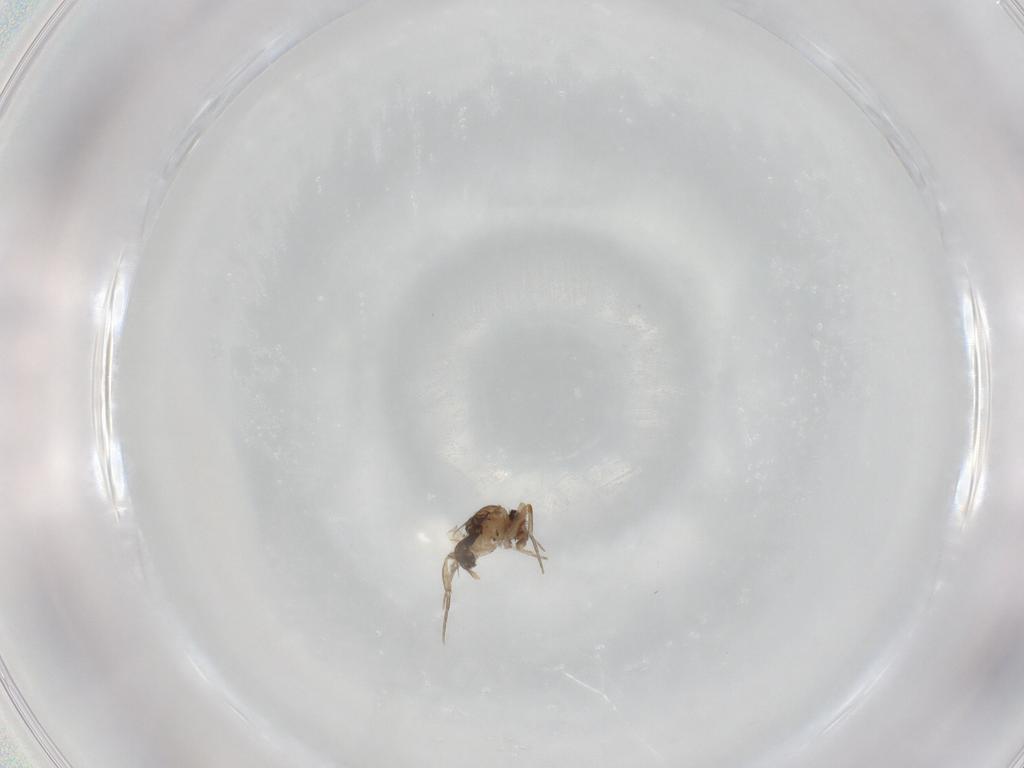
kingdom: Animalia
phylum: Arthropoda
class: Insecta
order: Diptera
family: Phoridae
